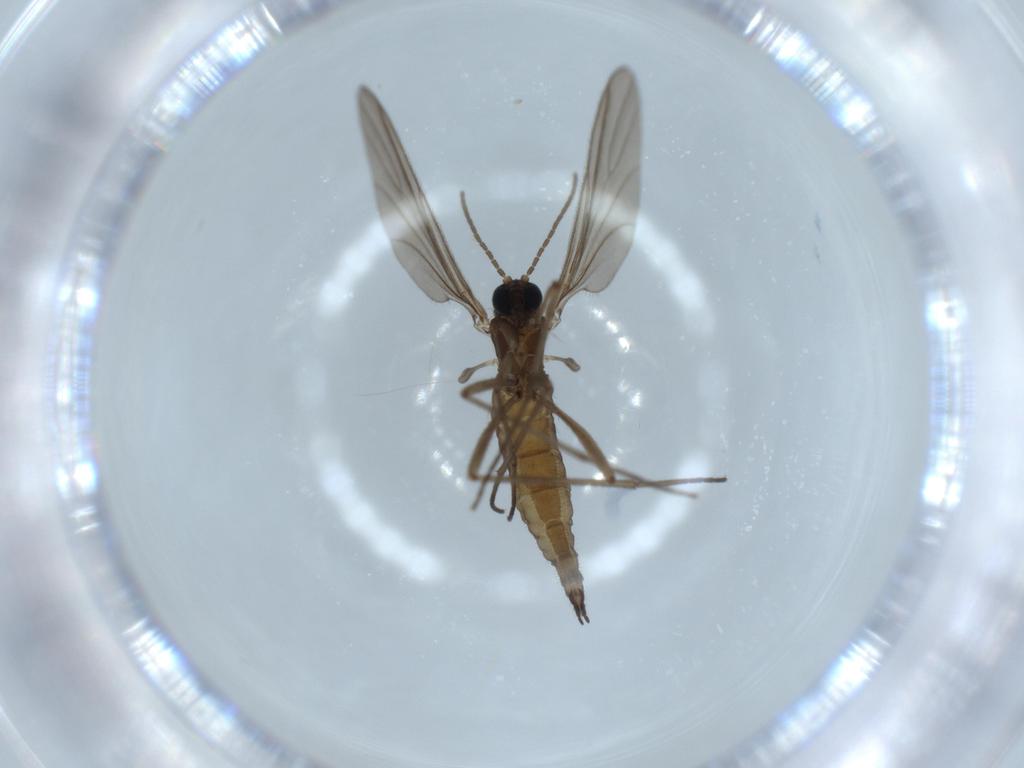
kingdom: Animalia
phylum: Arthropoda
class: Insecta
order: Diptera
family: Sciaridae
